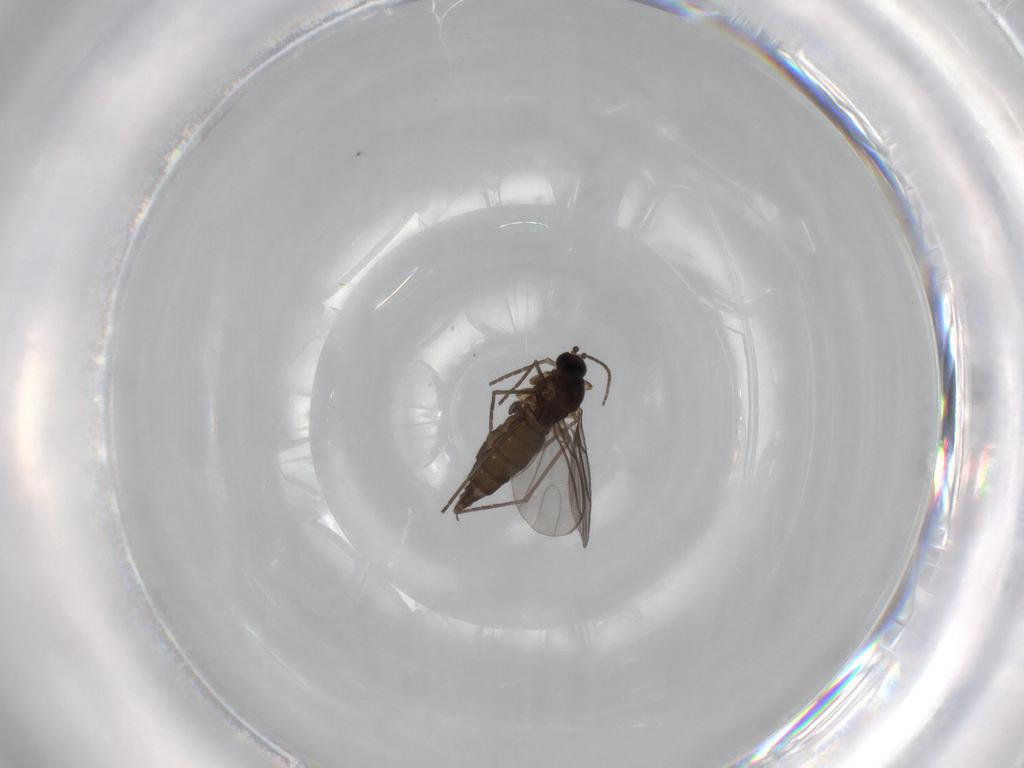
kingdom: Animalia
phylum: Arthropoda
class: Insecta
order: Diptera
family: Sciaridae
